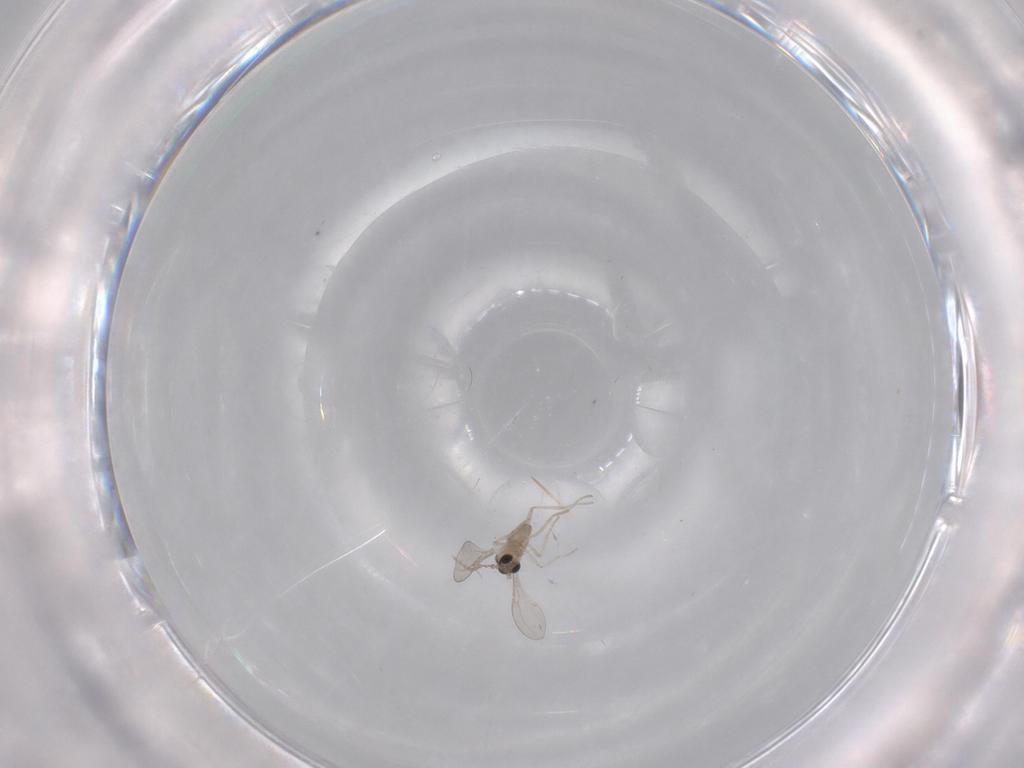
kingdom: Animalia
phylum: Arthropoda
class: Insecta
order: Diptera
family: Cecidomyiidae
